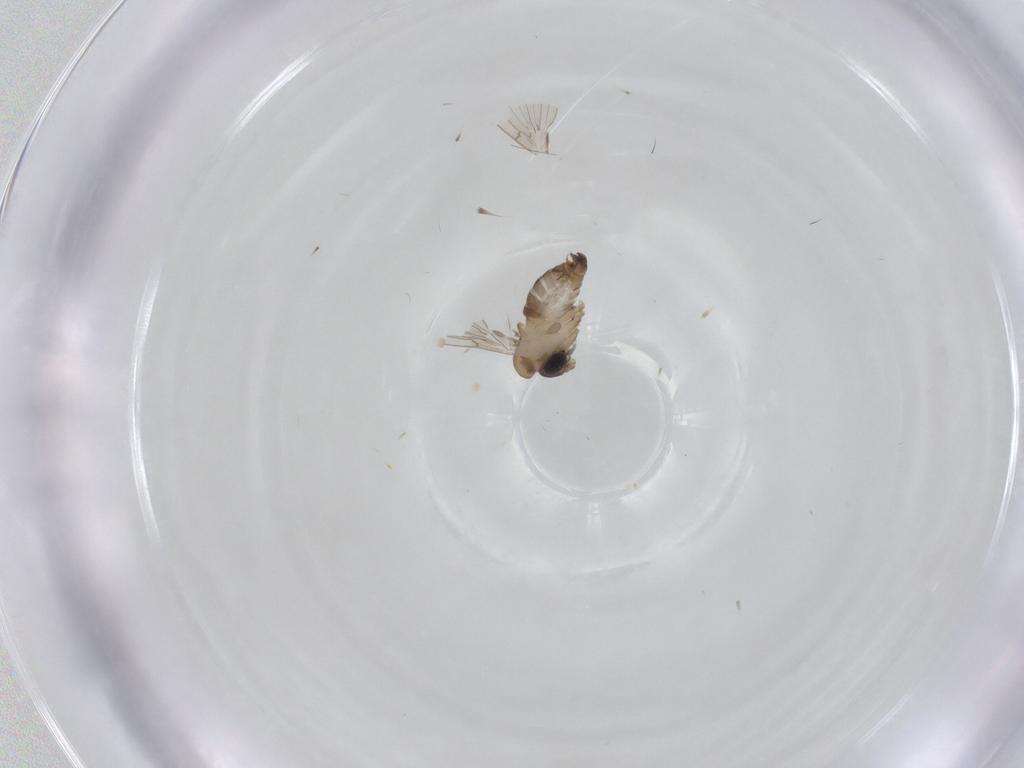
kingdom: Animalia
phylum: Arthropoda
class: Insecta
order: Diptera
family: Psychodidae
